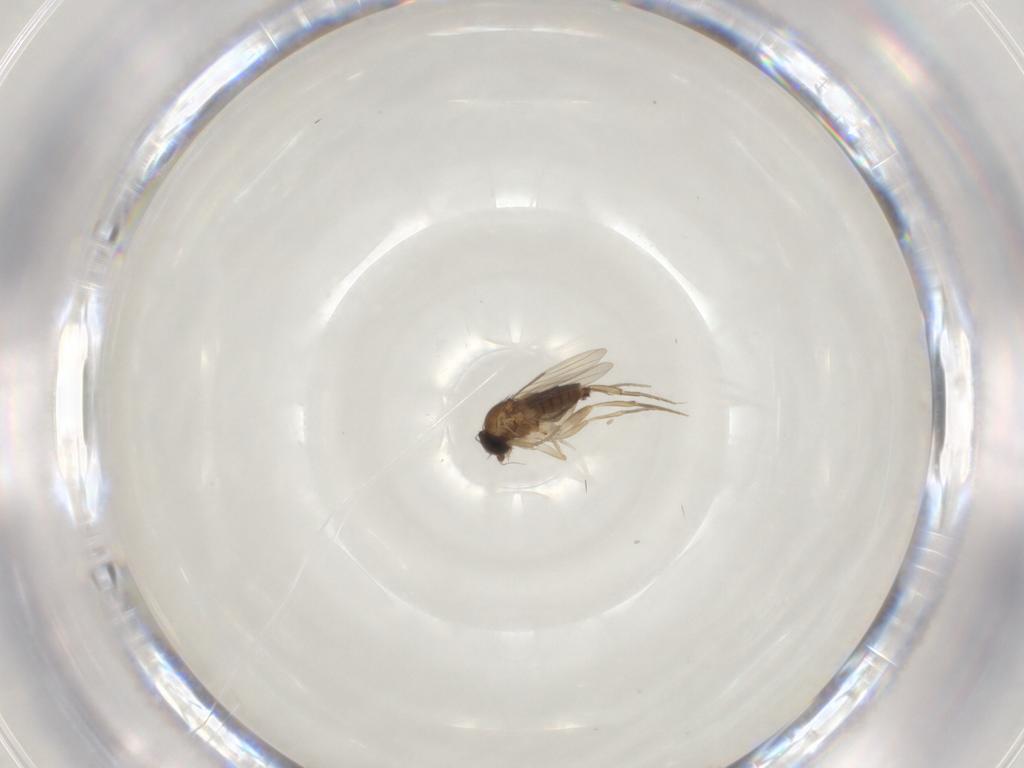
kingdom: Animalia
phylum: Arthropoda
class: Insecta
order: Diptera
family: Phoridae
